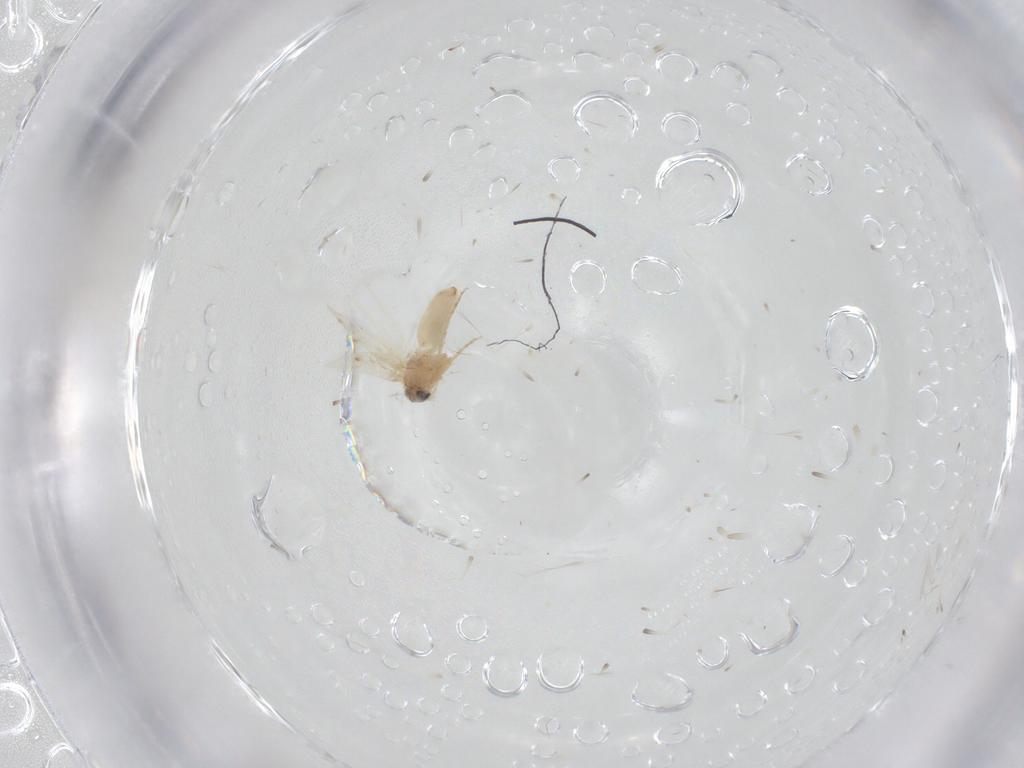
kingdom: Animalia
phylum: Arthropoda
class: Insecta
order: Lepidoptera
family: Crambidae
